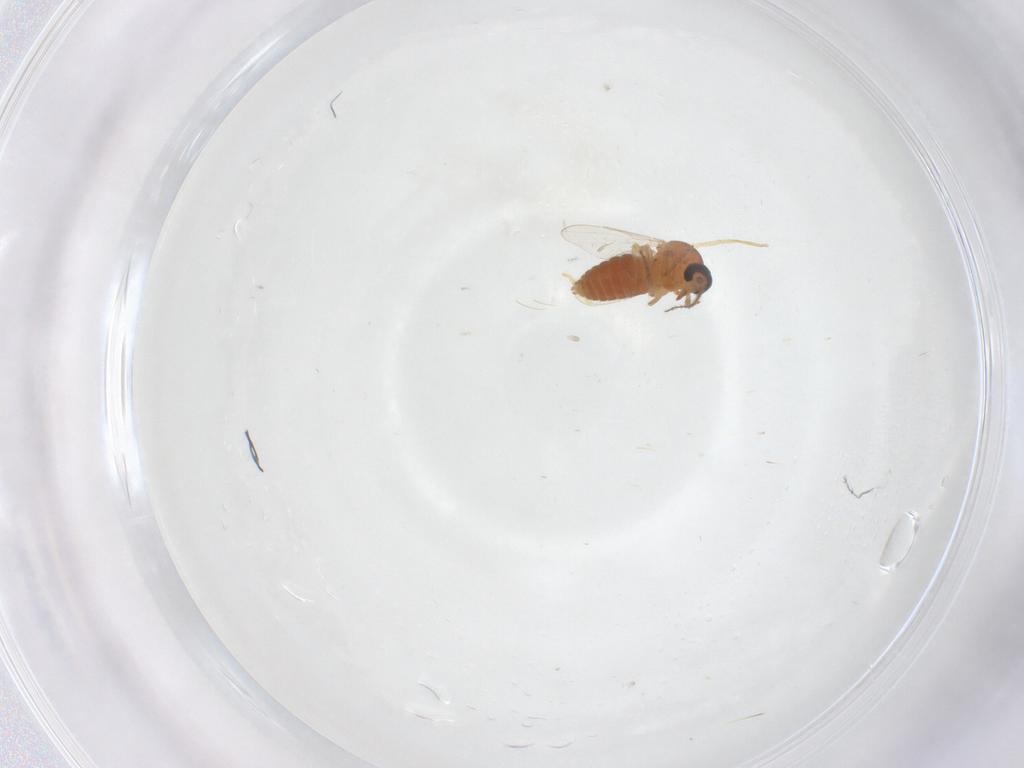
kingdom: Animalia
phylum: Arthropoda
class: Insecta
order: Diptera
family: Ceratopogonidae
